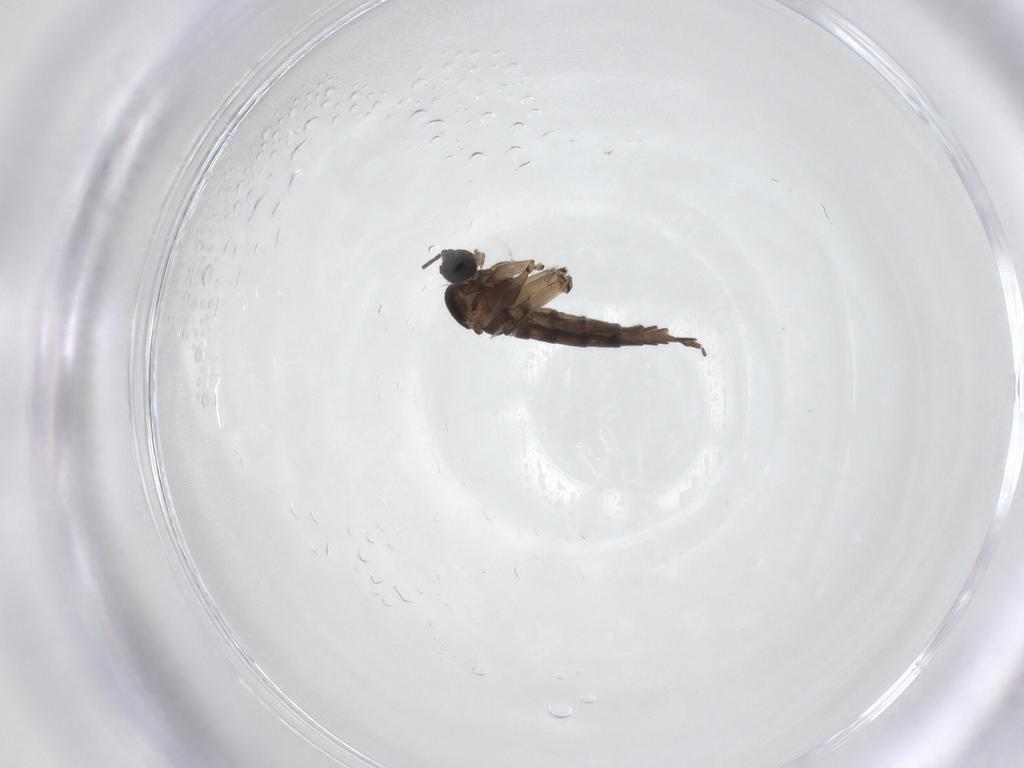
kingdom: Animalia
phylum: Arthropoda
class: Insecta
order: Diptera
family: Sciaridae
